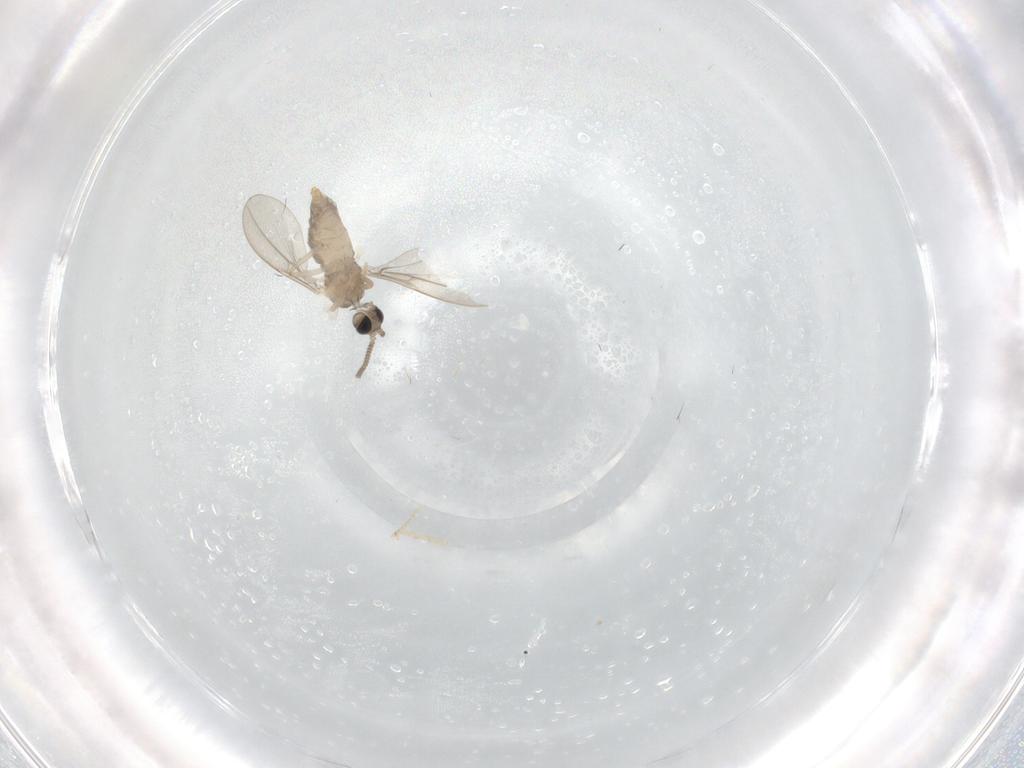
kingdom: Animalia
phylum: Arthropoda
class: Insecta
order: Diptera
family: Cecidomyiidae
